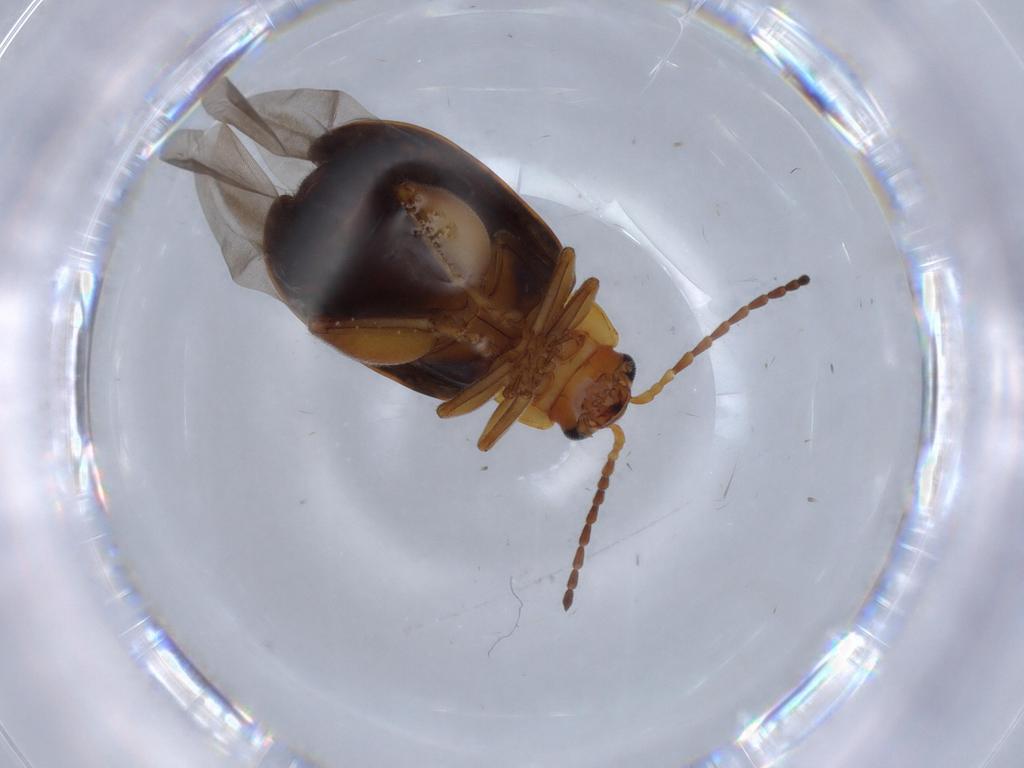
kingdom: Animalia
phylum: Arthropoda
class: Insecta
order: Coleoptera
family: Chrysomelidae
